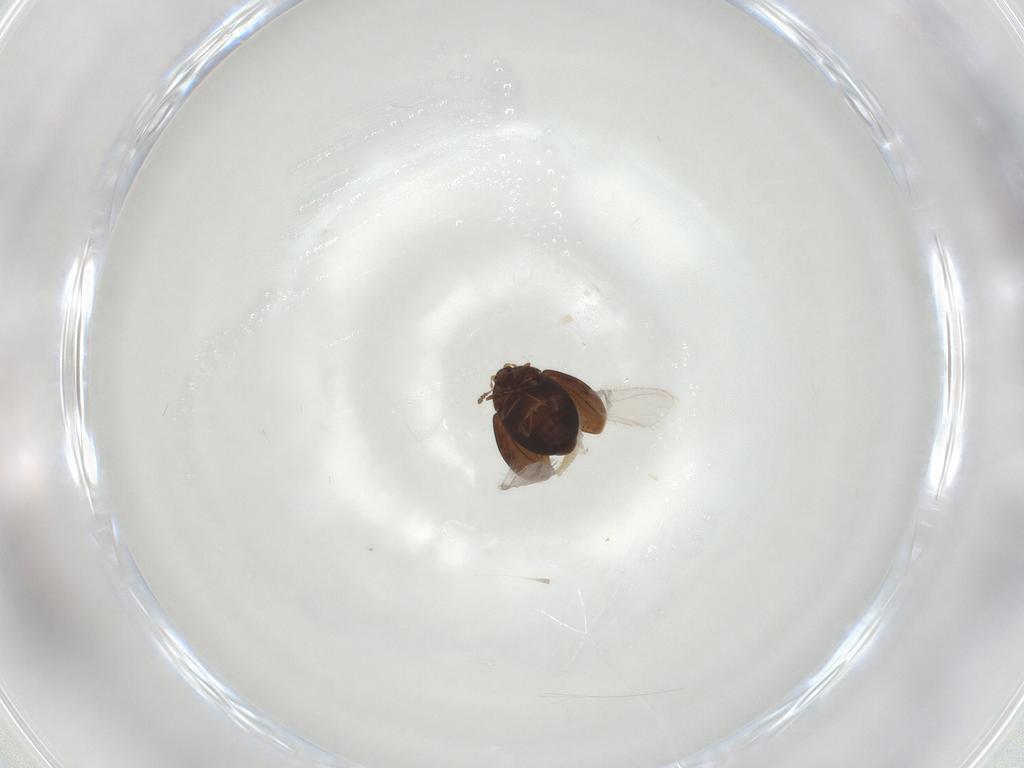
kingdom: Animalia
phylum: Arthropoda
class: Insecta
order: Coleoptera
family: Corylophidae
